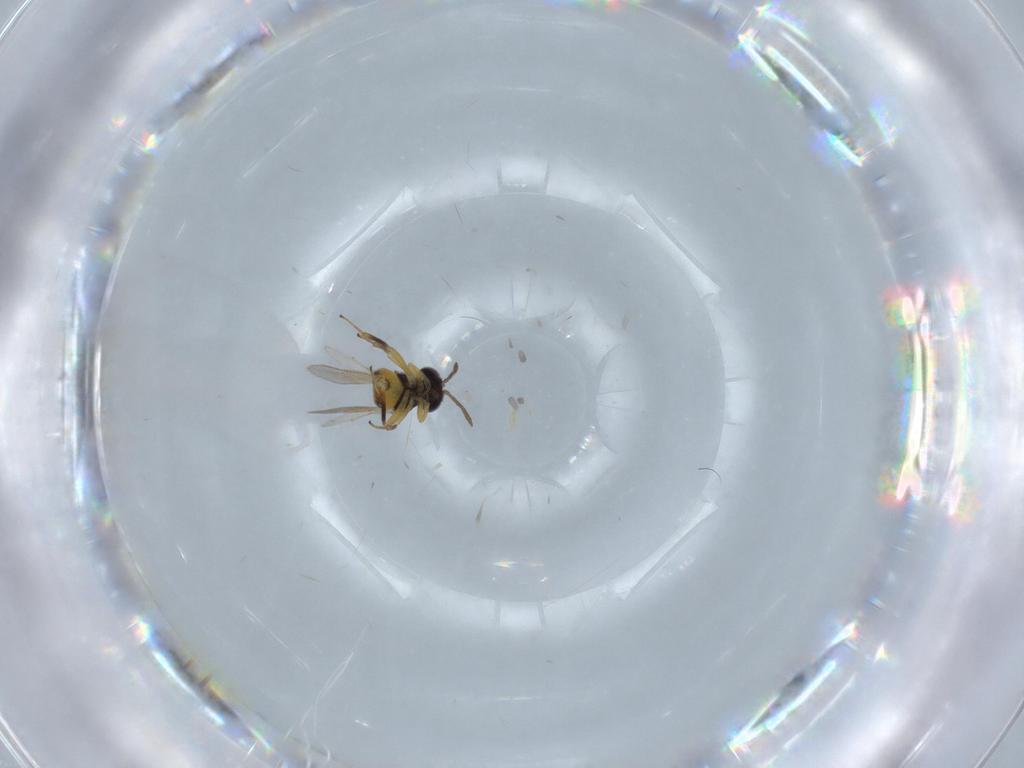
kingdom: Animalia
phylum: Arthropoda
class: Insecta
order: Hymenoptera
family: Aphelinidae
